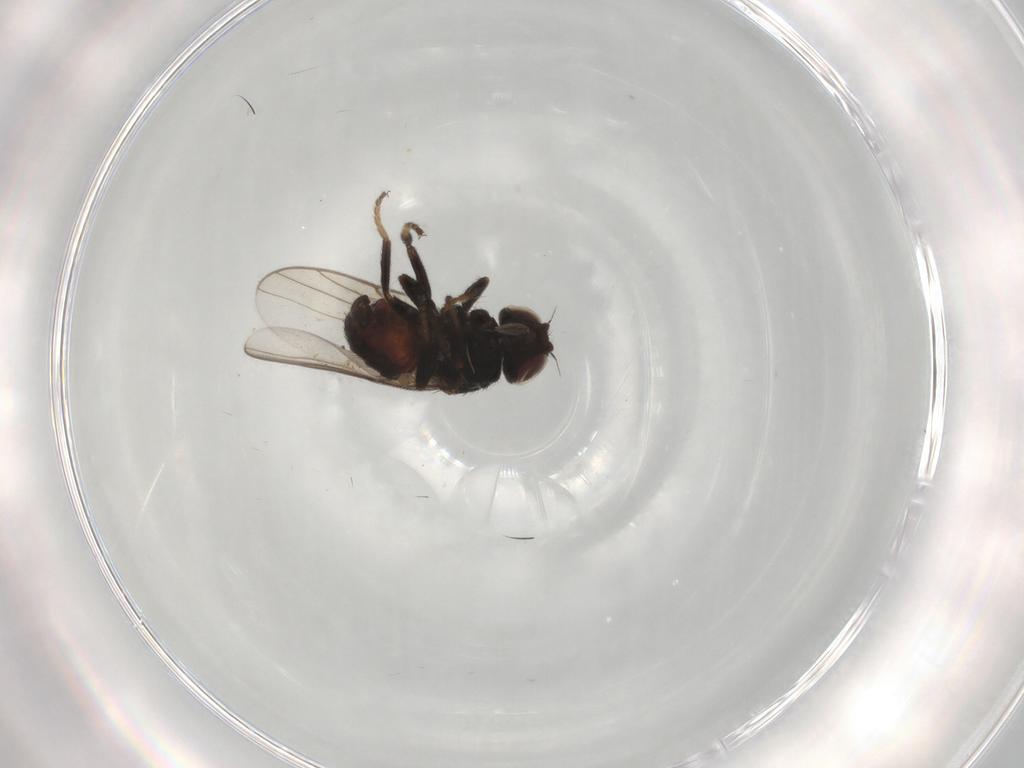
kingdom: Animalia
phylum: Arthropoda
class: Insecta
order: Diptera
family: Chloropidae
